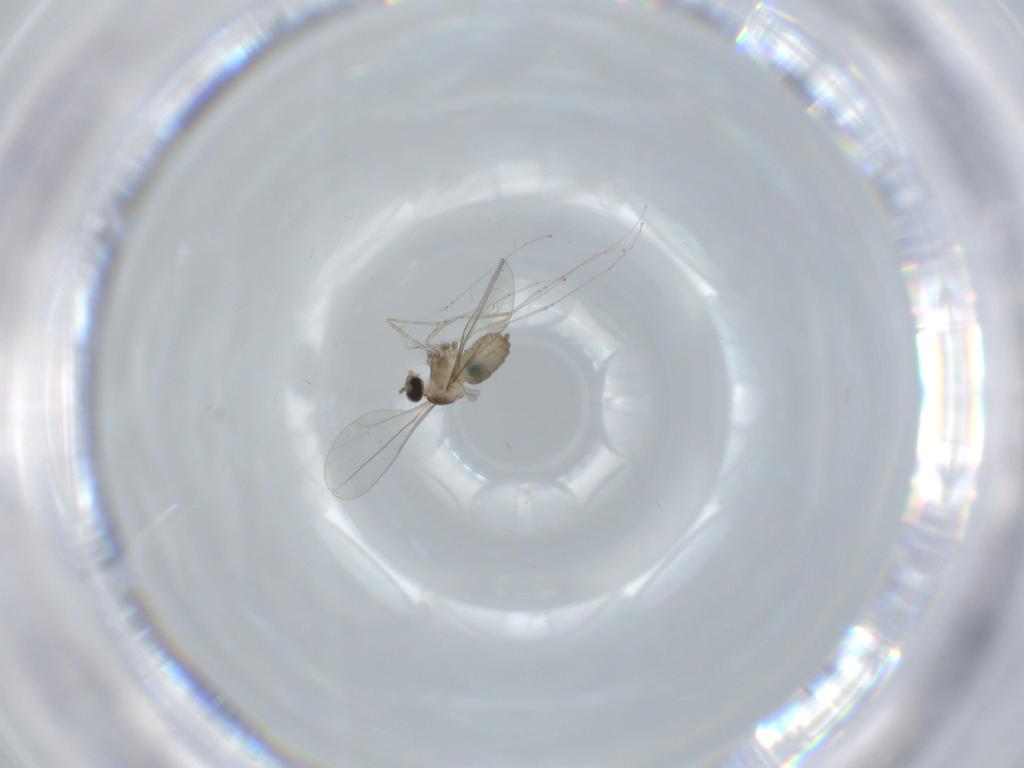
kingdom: Animalia
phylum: Arthropoda
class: Insecta
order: Diptera
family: Cecidomyiidae
